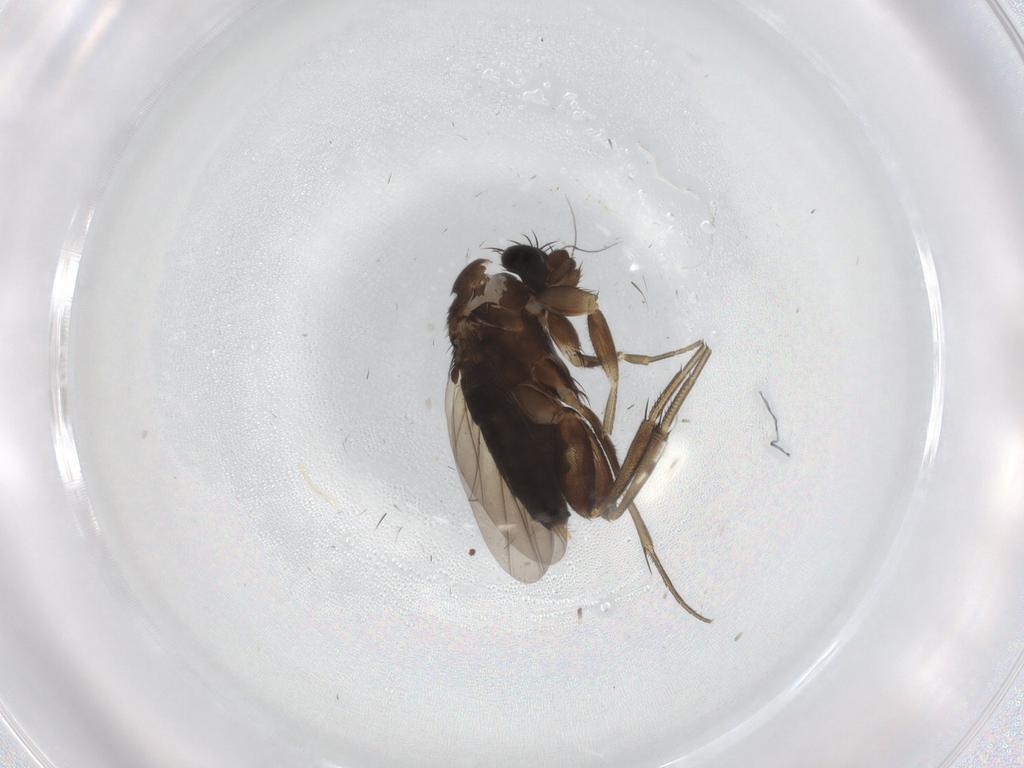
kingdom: Animalia
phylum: Arthropoda
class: Insecta
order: Diptera
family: Phoridae
